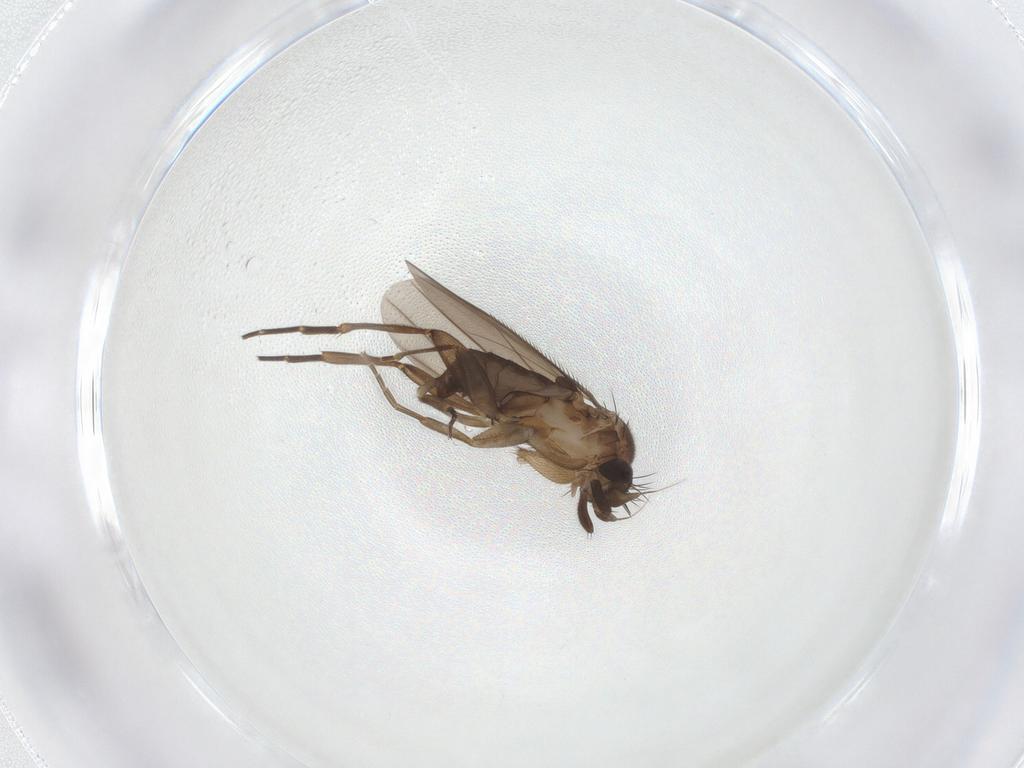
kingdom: Animalia
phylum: Arthropoda
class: Insecta
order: Diptera
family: Phoridae
